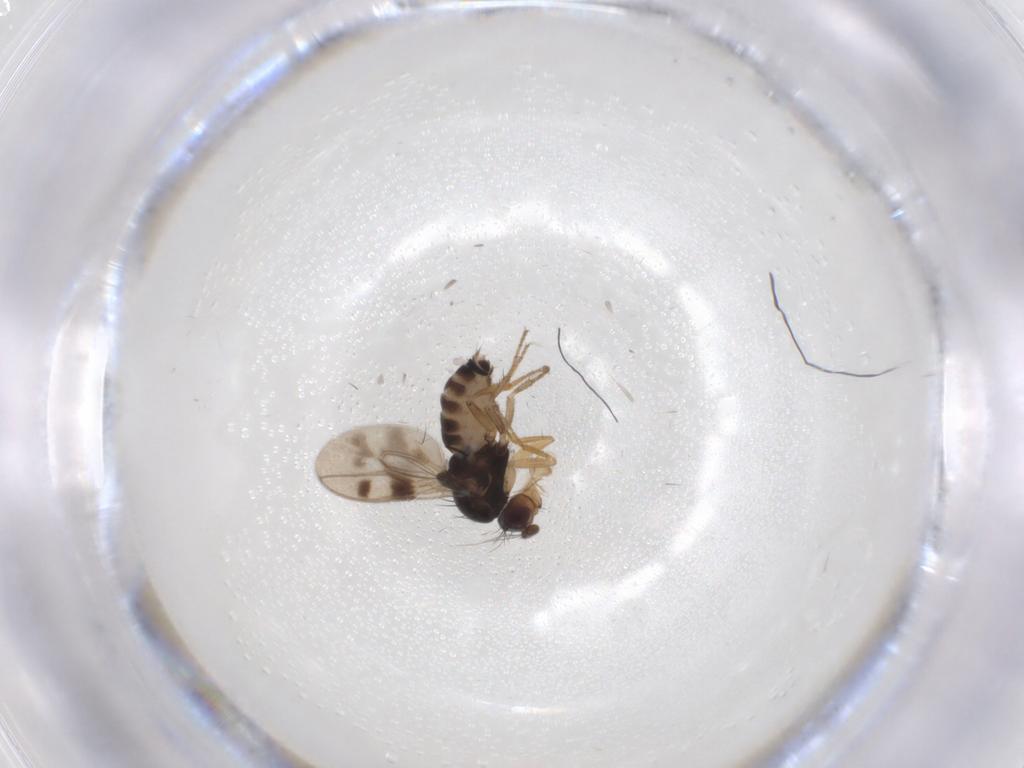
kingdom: Animalia
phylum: Arthropoda
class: Insecta
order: Diptera
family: Sphaeroceridae
